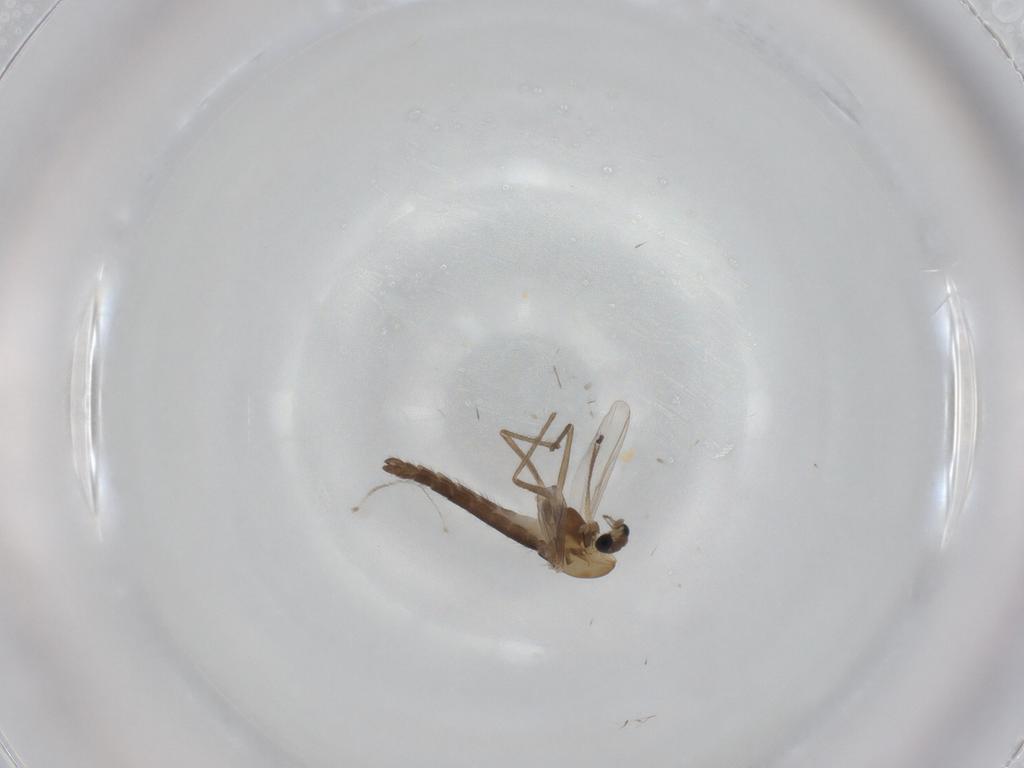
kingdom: Animalia
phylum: Arthropoda
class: Insecta
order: Diptera
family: Chironomidae
